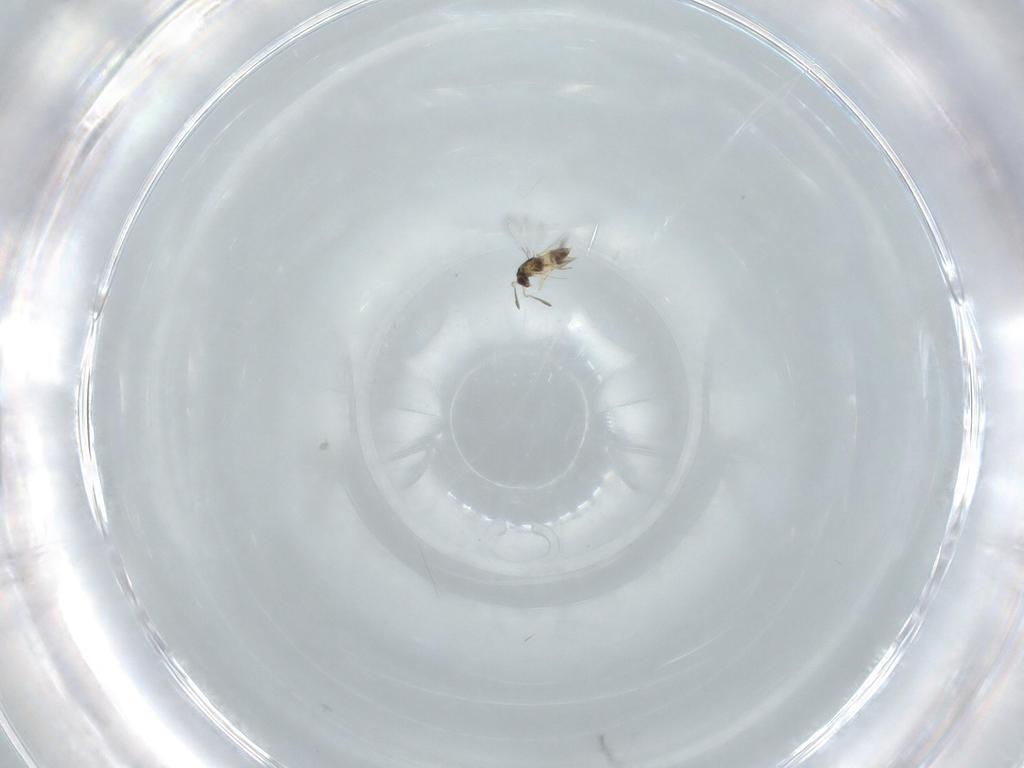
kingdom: Animalia
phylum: Arthropoda
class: Insecta
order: Hymenoptera
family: Mymaridae
